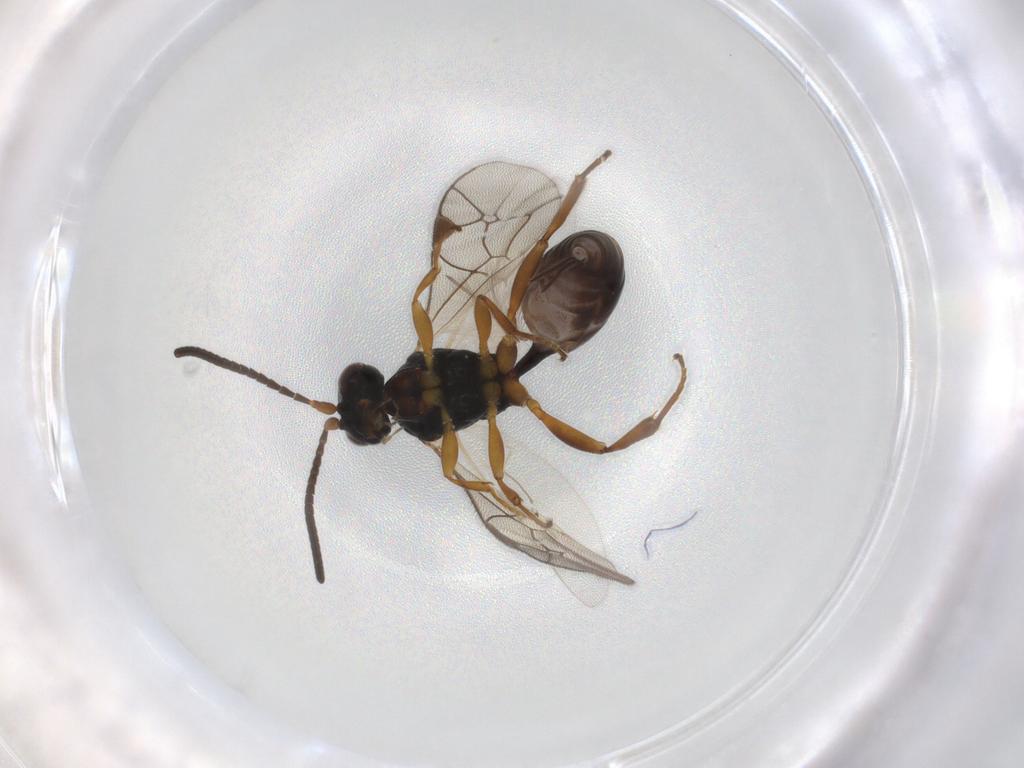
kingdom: Animalia
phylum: Arthropoda
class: Insecta
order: Hymenoptera
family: Ichneumonidae
